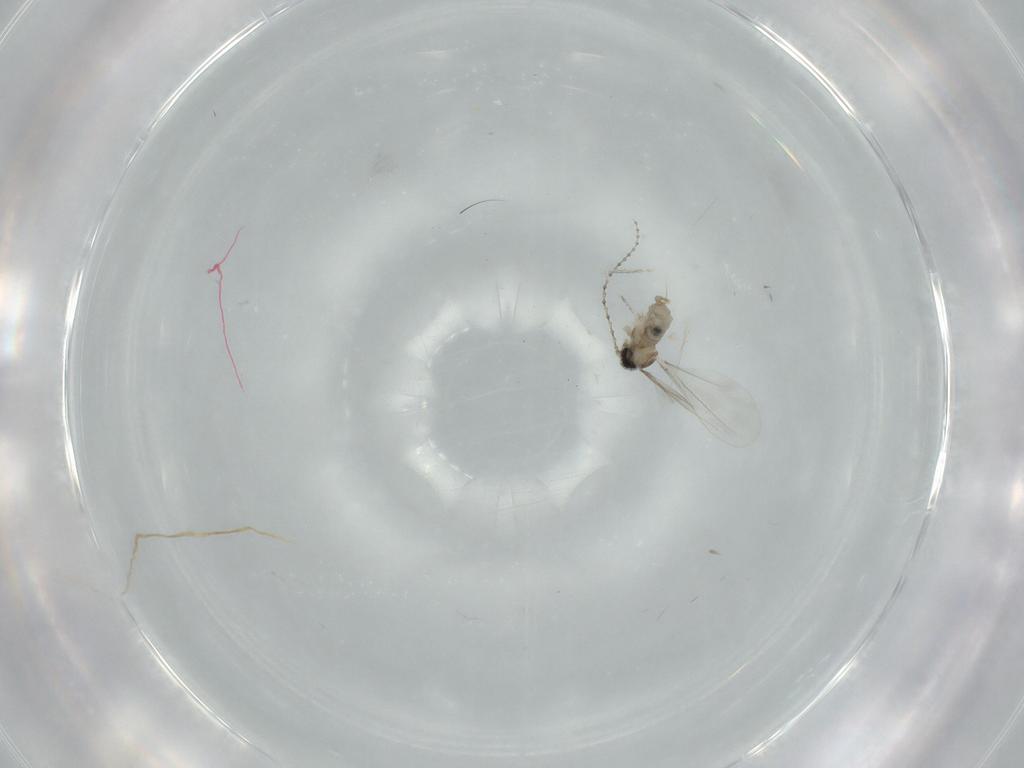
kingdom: Animalia
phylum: Arthropoda
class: Insecta
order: Diptera
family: Cecidomyiidae
